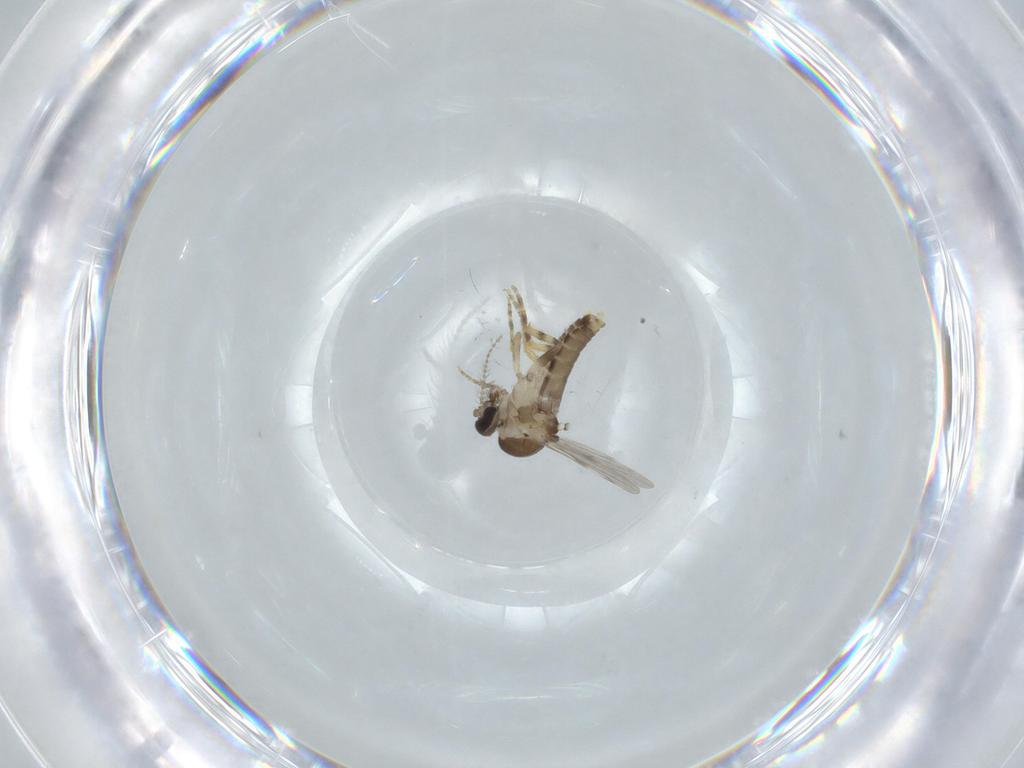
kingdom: Animalia
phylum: Arthropoda
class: Insecta
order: Diptera
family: Ceratopogonidae
